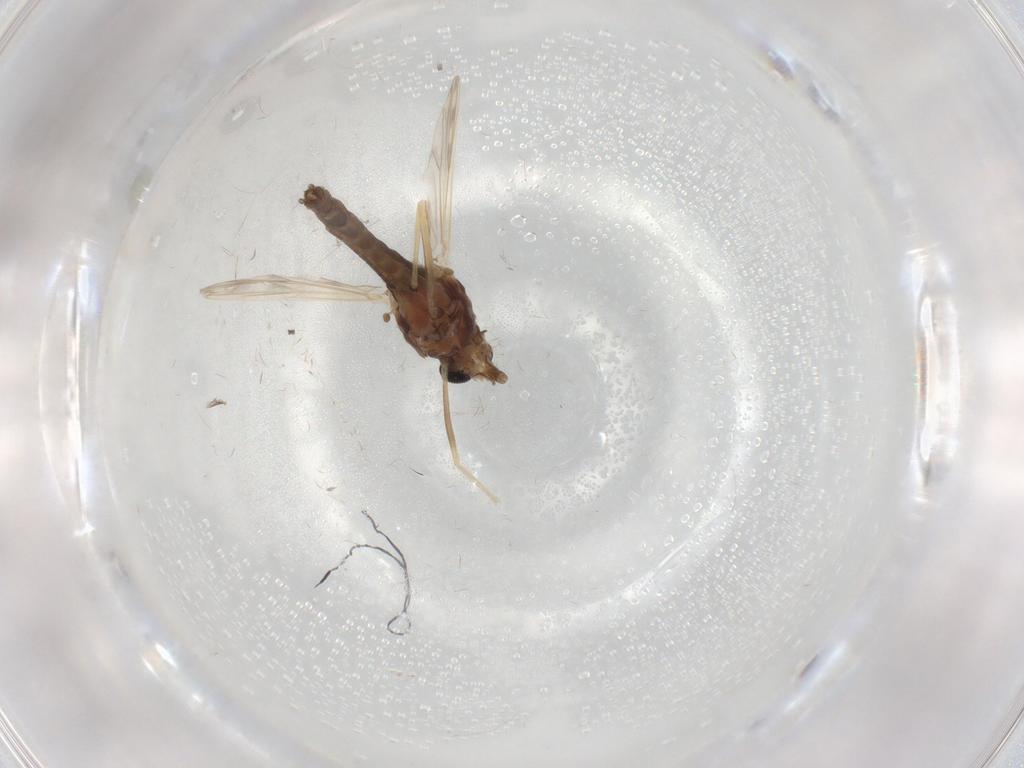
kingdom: Animalia
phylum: Arthropoda
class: Insecta
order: Diptera
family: Chironomidae
